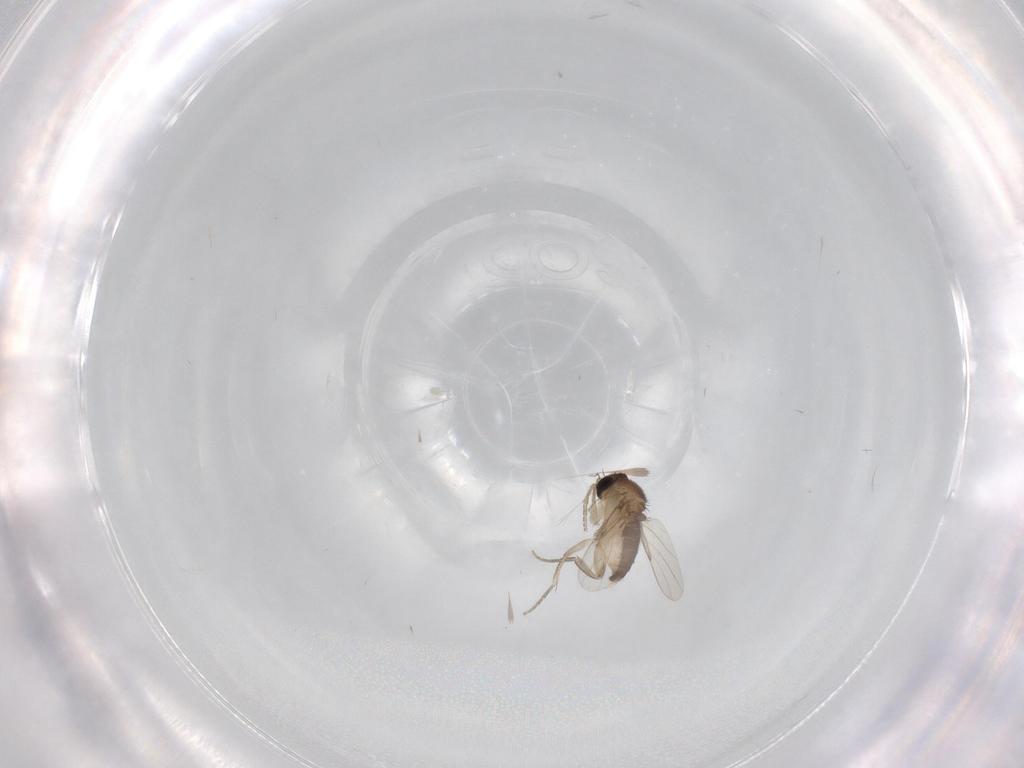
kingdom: Animalia
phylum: Arthropoda
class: Insecta
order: Diptera
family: Phoridae
